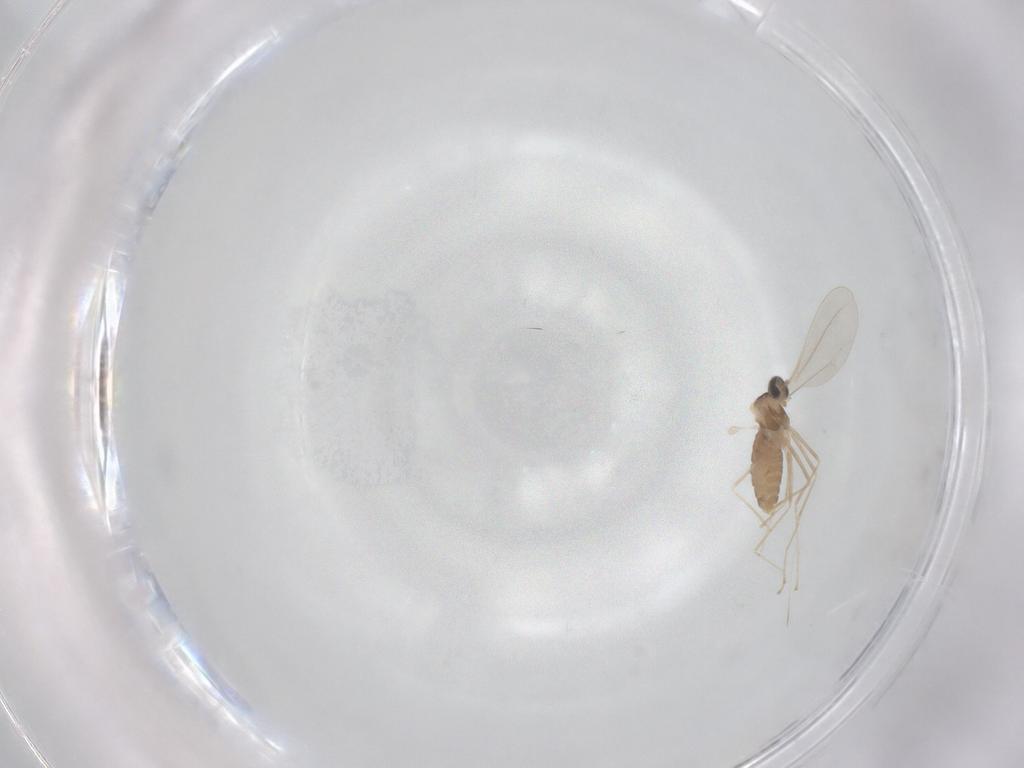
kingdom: Animalia
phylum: Arthropoda
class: Insecta
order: Diptera
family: Cecidomyiidae
